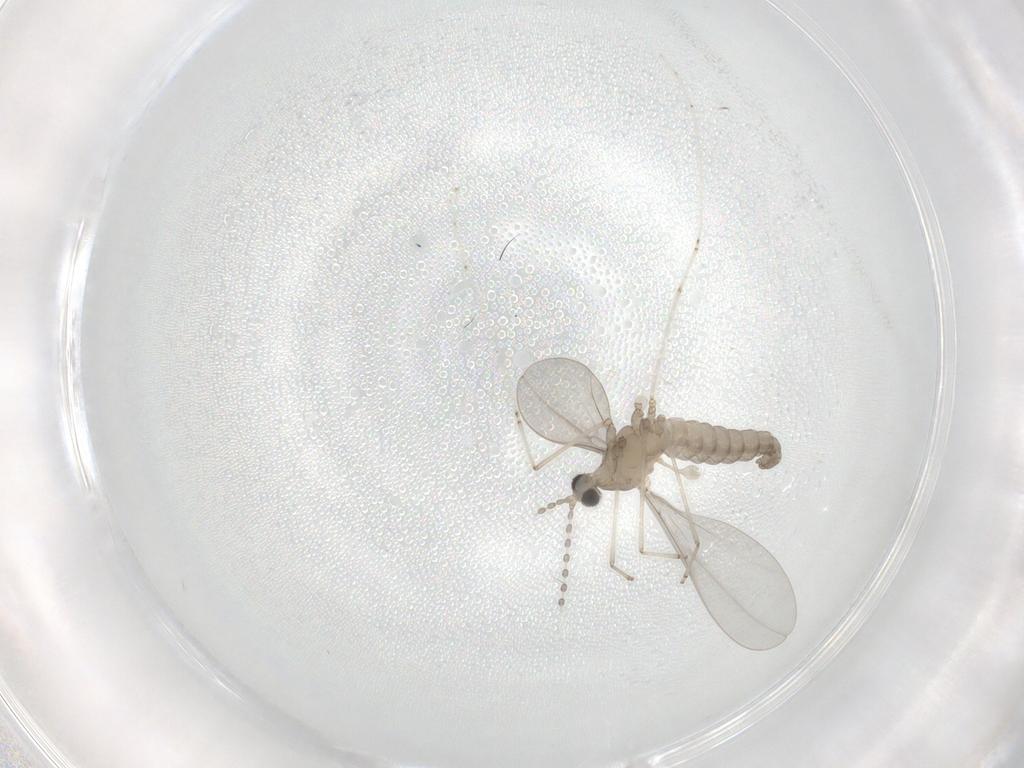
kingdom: Animalia
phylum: Arthropoda
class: Insecta
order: Diptera
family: Cecidomyiidae
